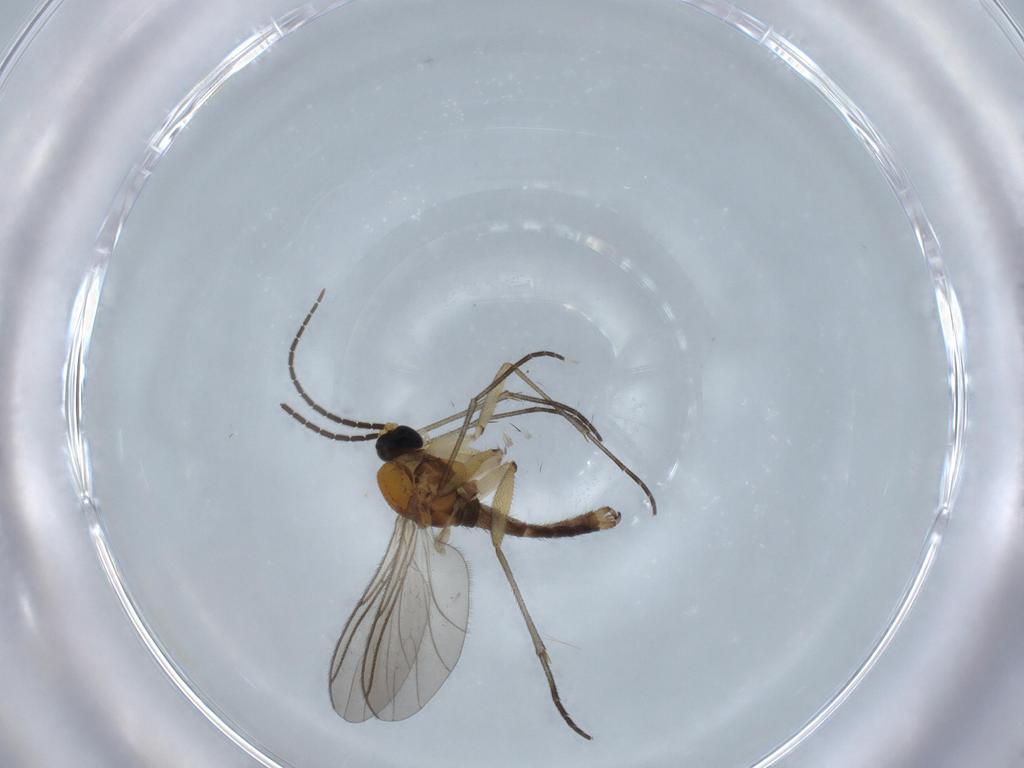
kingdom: Animalia
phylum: Arthropoda
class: Insecta
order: Diptera
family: Sciaridae
